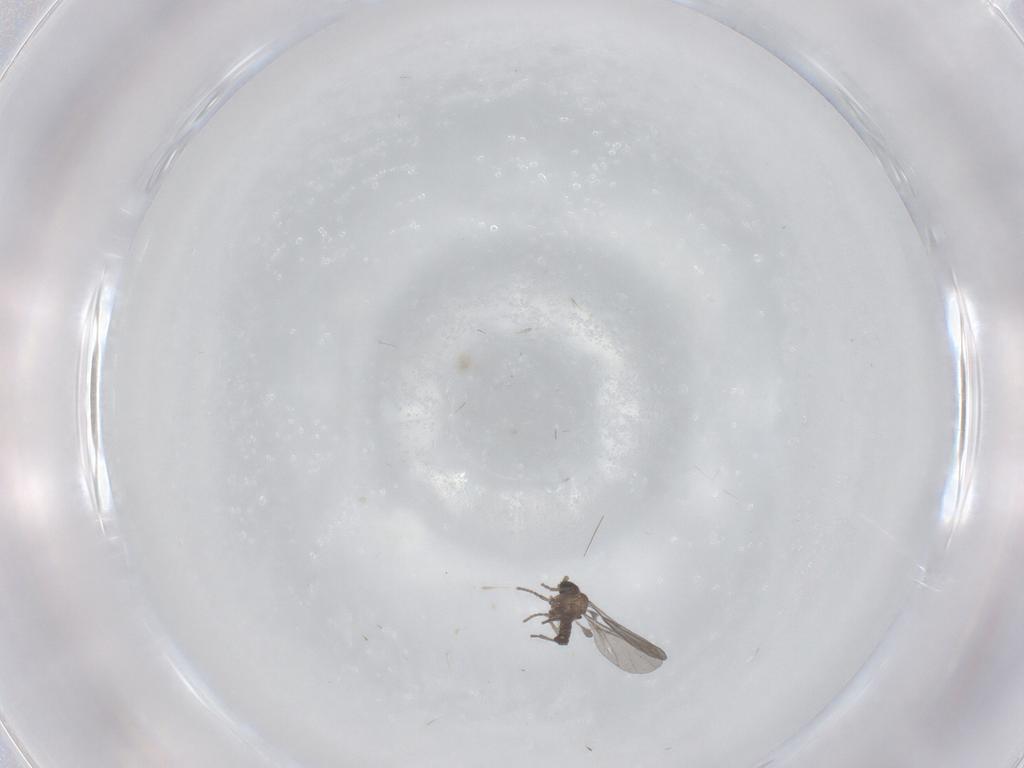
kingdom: Animalia
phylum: Arthropoda
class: Insecta
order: Diptera
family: Sciaridae
